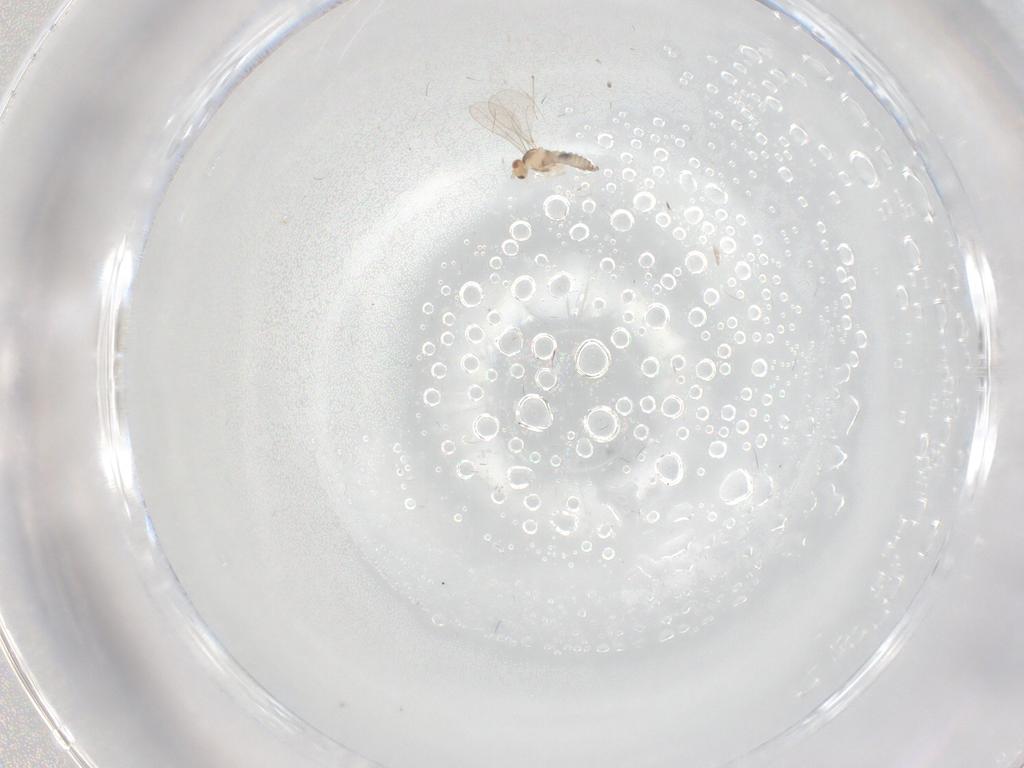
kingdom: Animalia
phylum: Arthropoda
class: Insecta
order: Diptera
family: Cecidomyiidae
